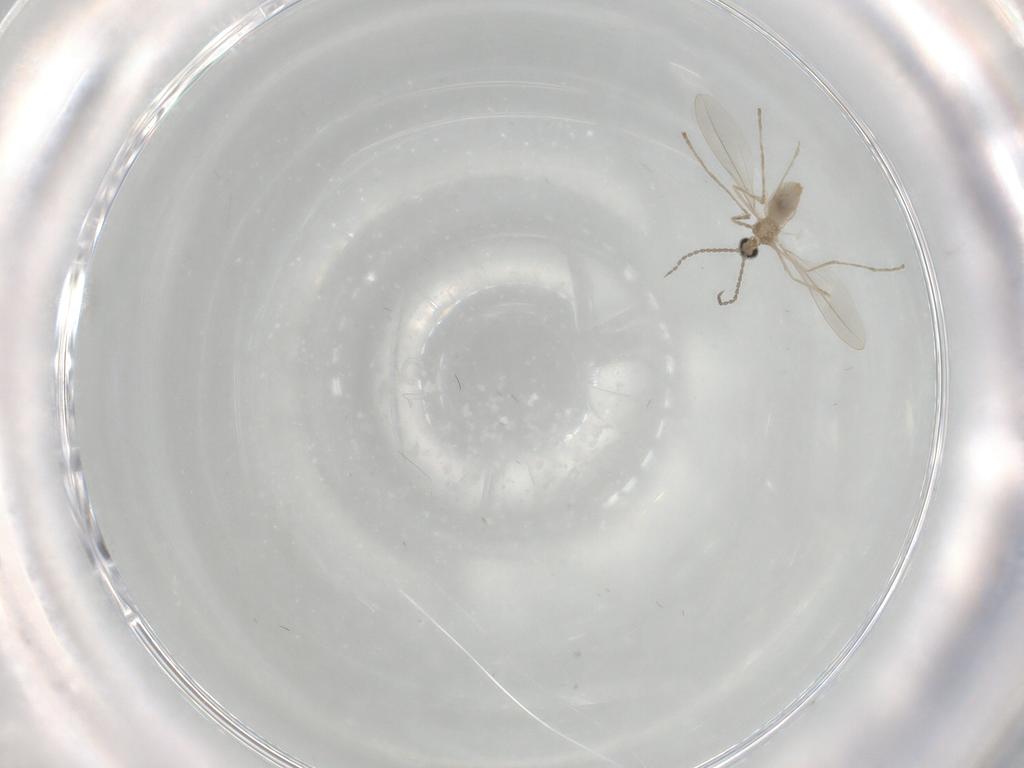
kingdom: Animalia
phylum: Arthropoda
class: Insecta
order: Diptera
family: Cecidomyiidae
